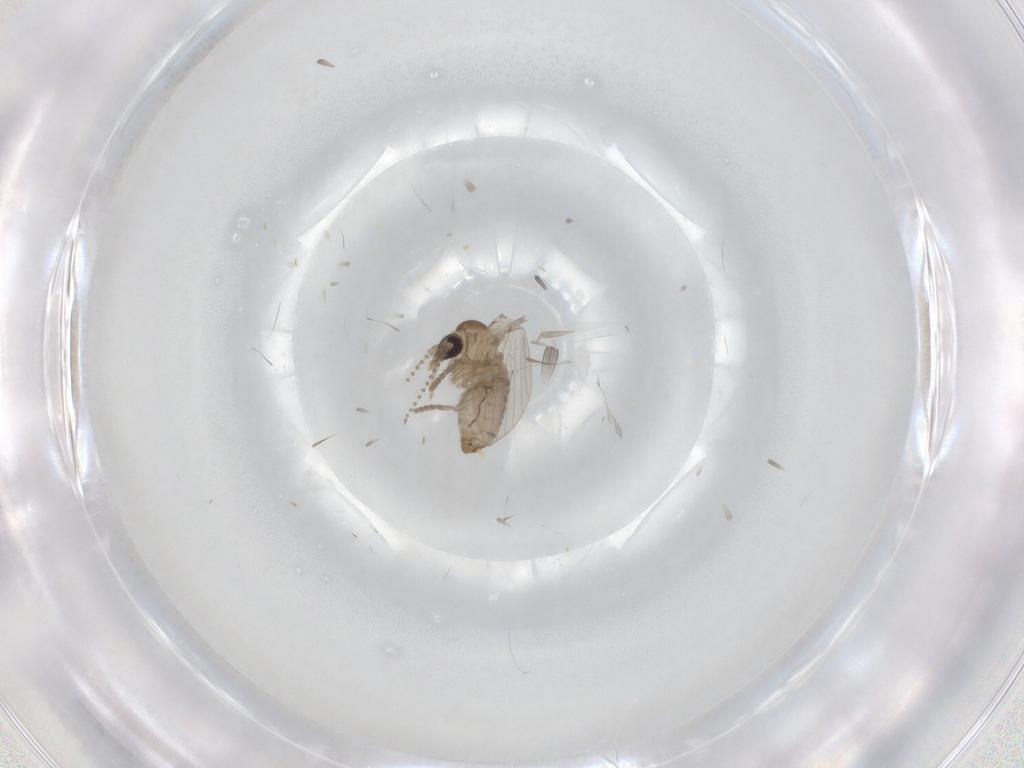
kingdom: Animalia
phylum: Arthropoda
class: Insecta
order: Diptera
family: Psychodidae
